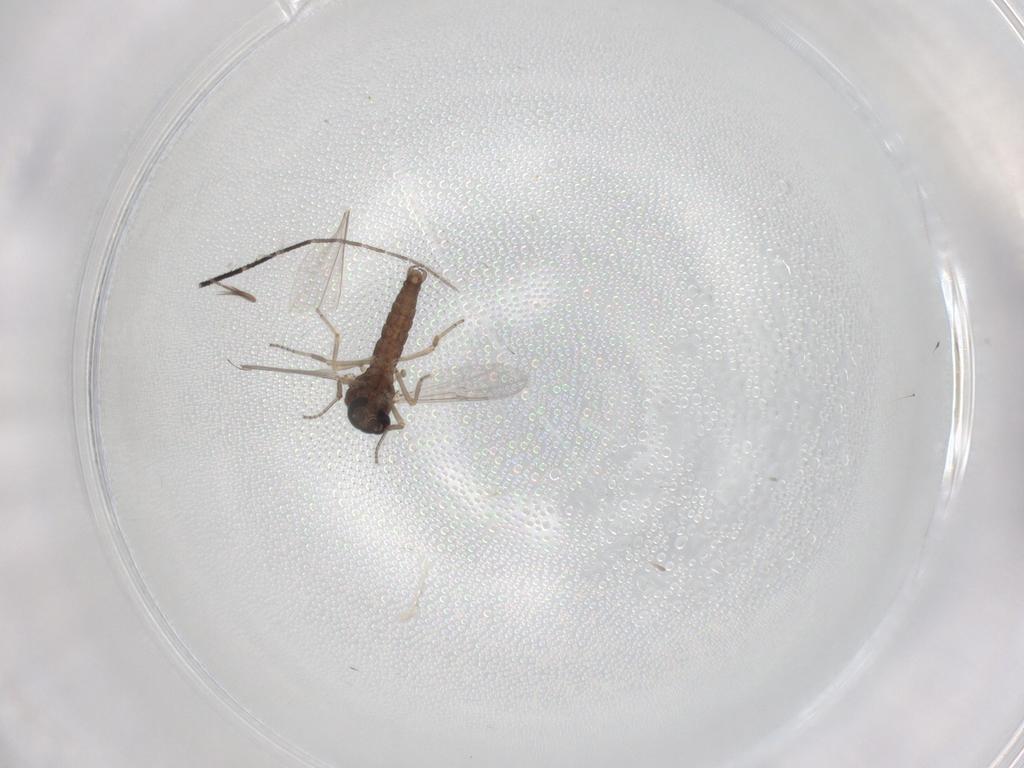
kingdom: Animalia
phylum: Arthropoda
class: Insecta
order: Diptera
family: Ceratopogonidae
